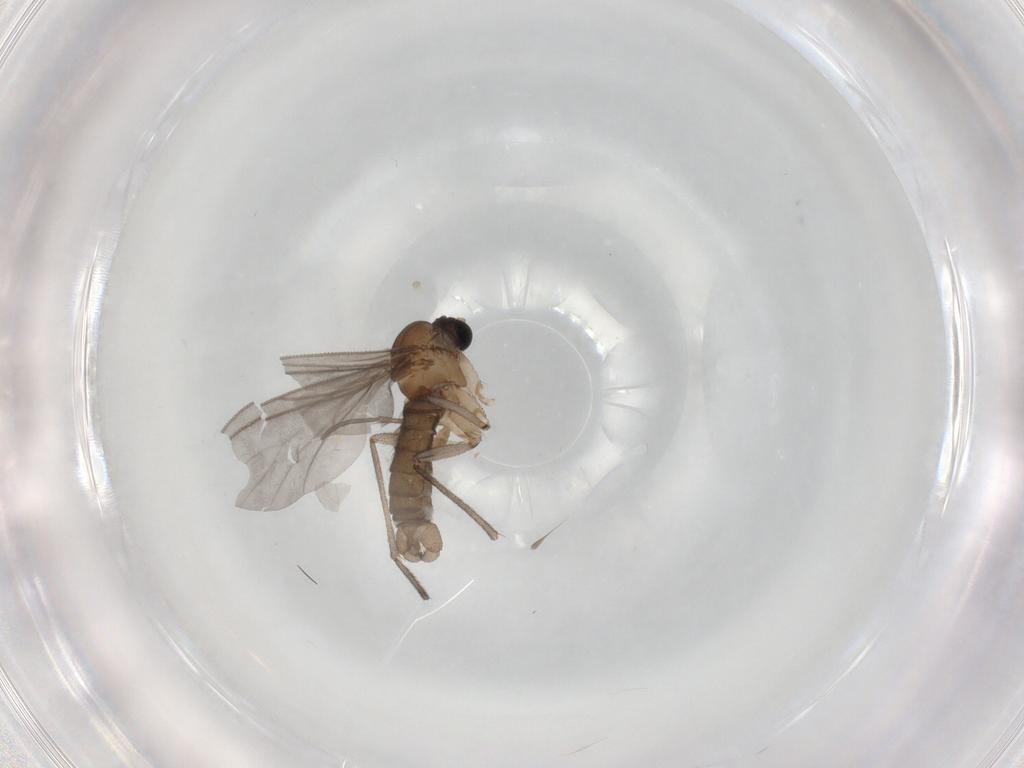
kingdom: Animalia
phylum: Arthropoda
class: Insecta
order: Diptera
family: Sciaridae
